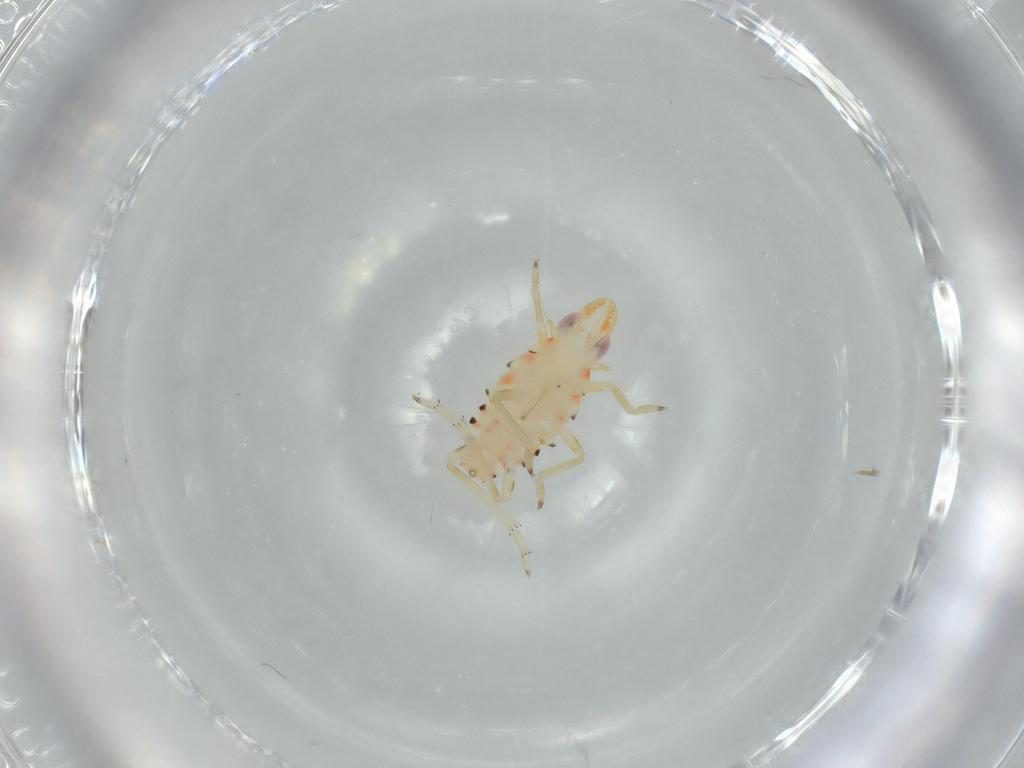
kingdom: Animalia
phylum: Arthropoda
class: Insecta
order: Hemiptera
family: Tropiduchidae
